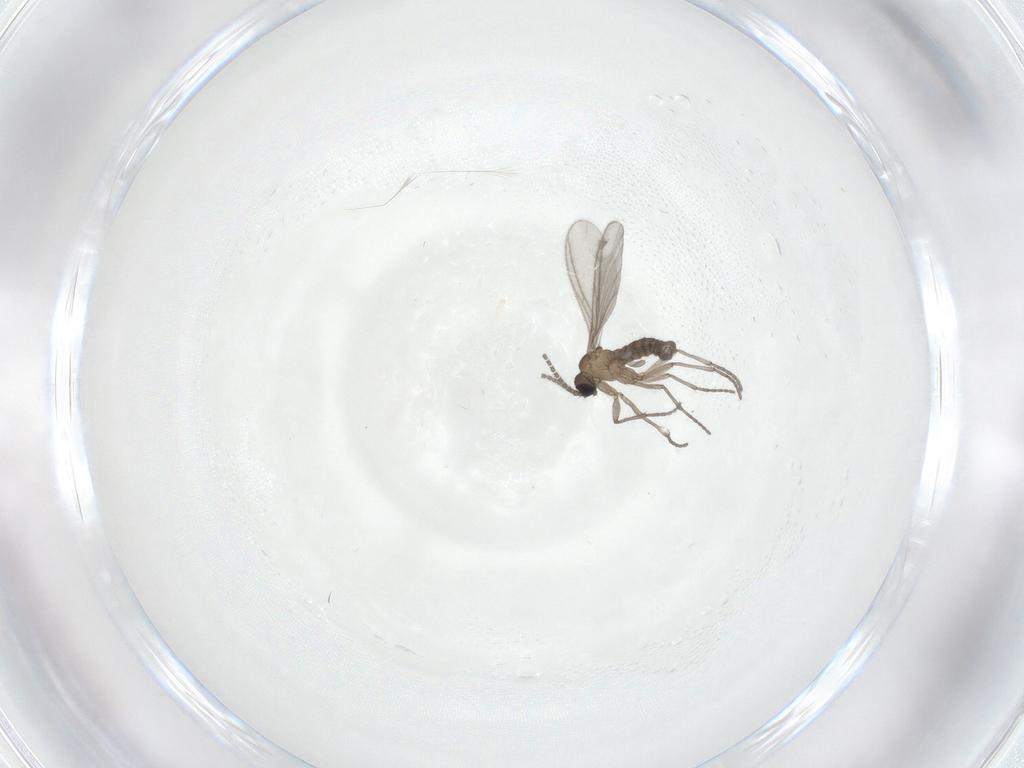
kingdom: Animalia
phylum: Arthropoda
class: Insecta
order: Diptera
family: Sciaridae
